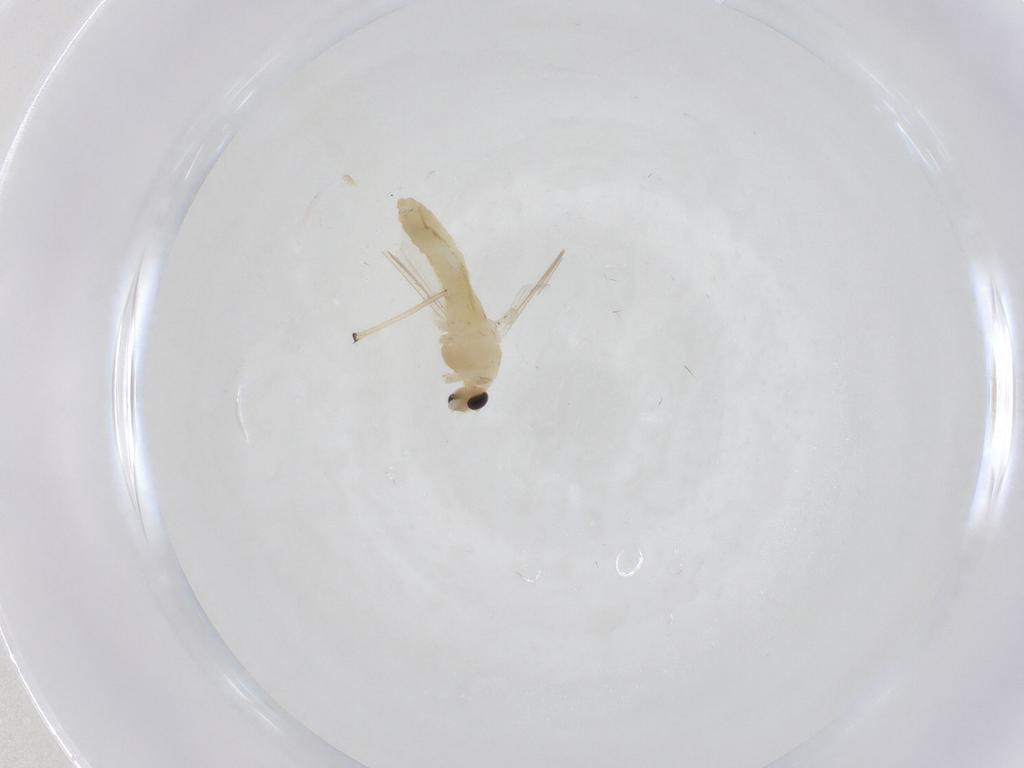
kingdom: Animalia
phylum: Arthropoda
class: Insecta
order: Diptera
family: Chironomidae
